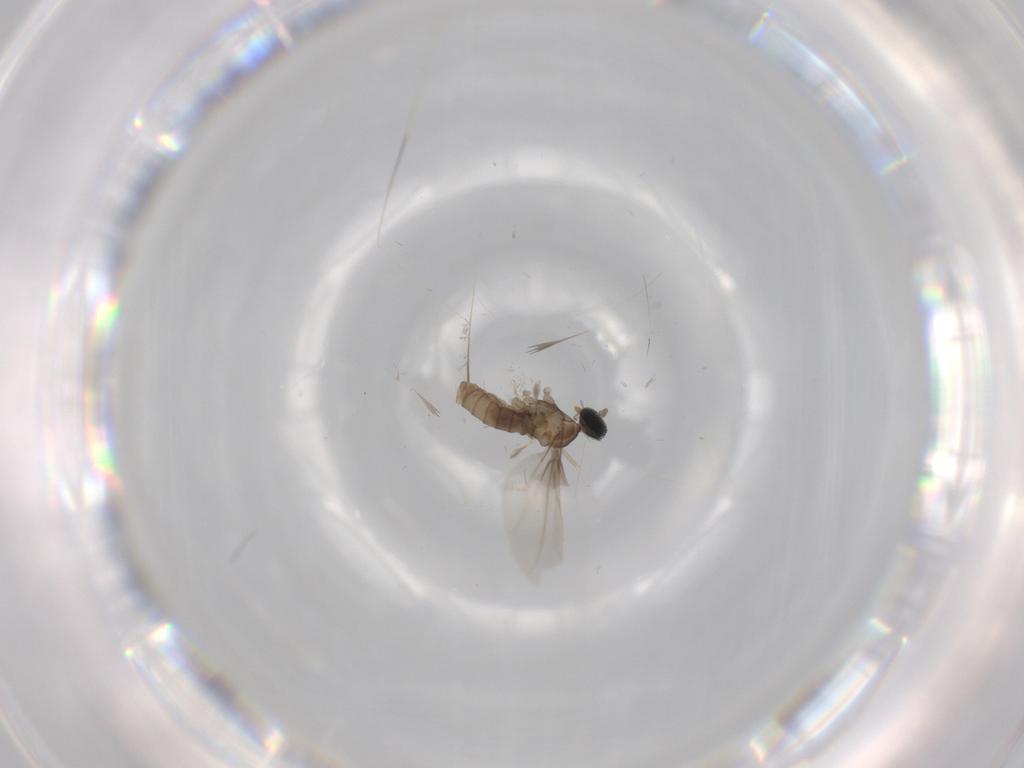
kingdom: Animalia
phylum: Arthropoda
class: Insecta
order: Diptera
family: Cecidomyiidae
